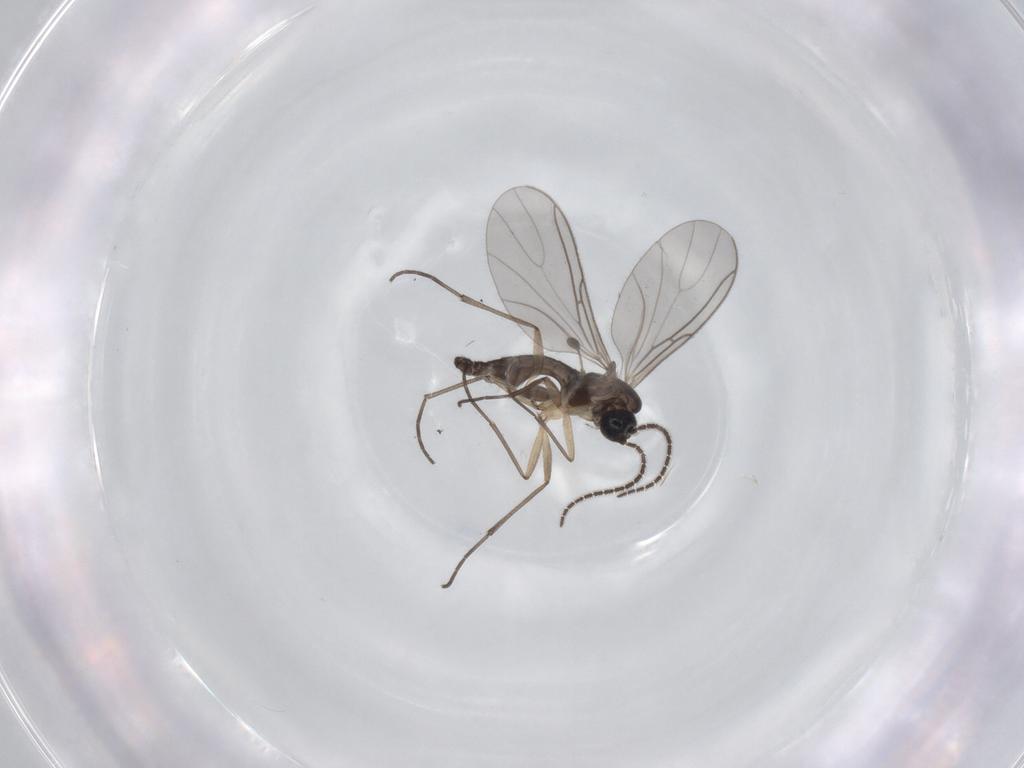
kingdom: Animalia
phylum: Arthropoda
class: Insecta
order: Diptera
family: Sciaridae
